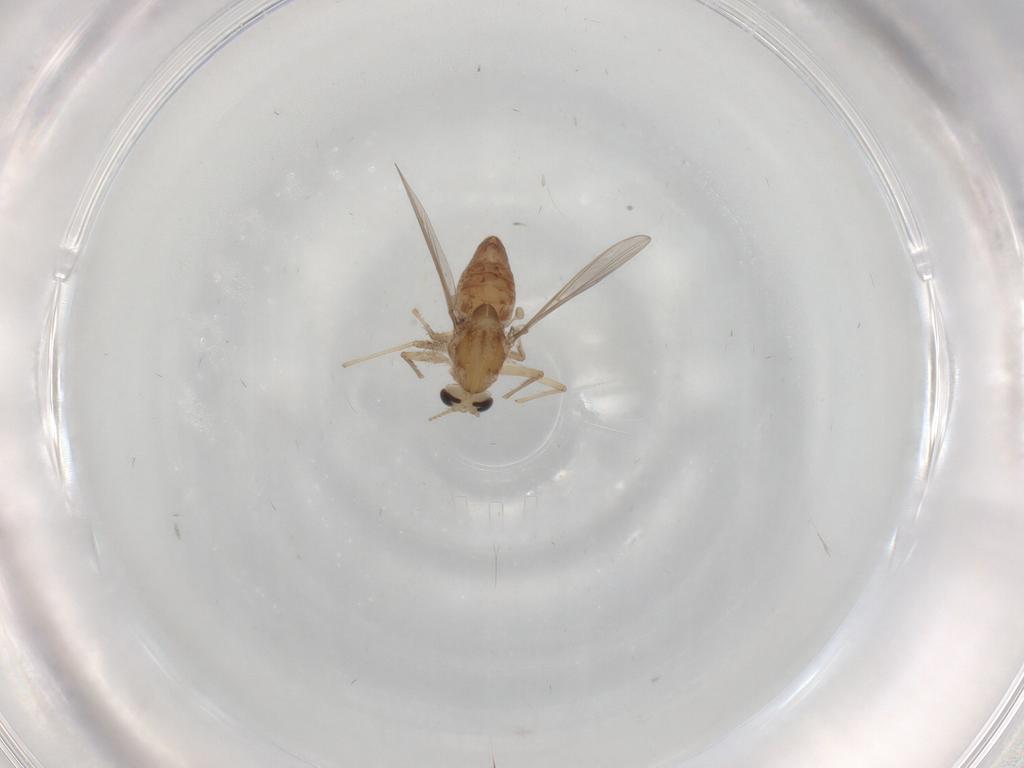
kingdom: Animalia
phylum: Arthropoda
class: Insecta
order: Diptera
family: Chironomidae
